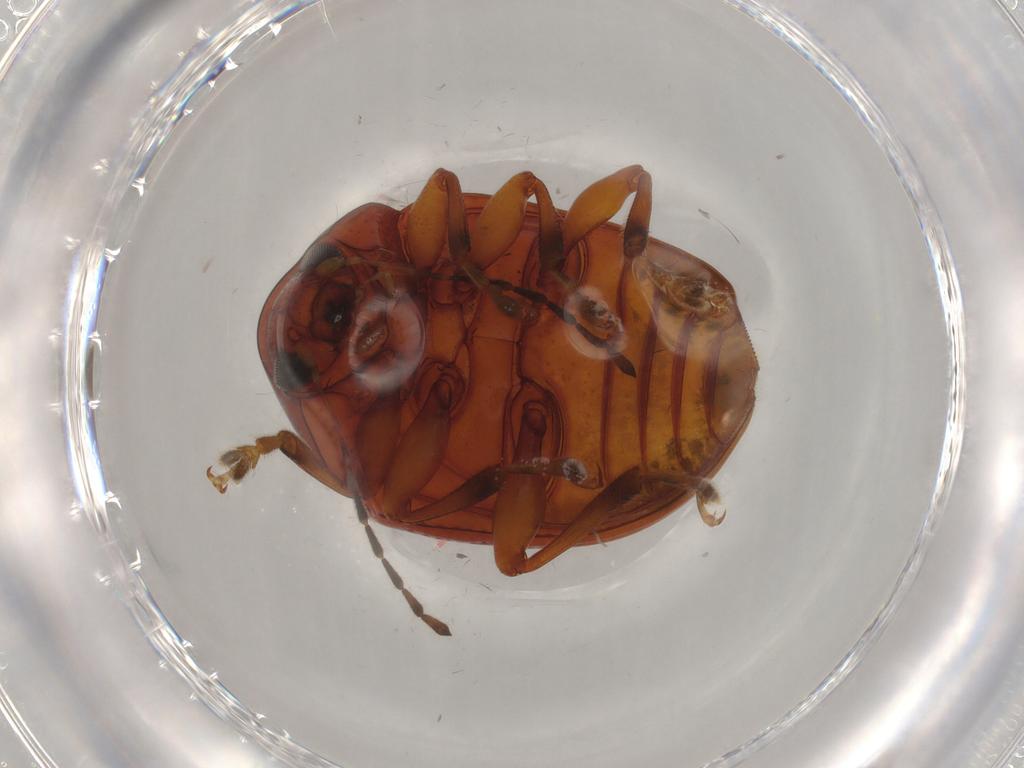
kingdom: Animalia
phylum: Arthropoda
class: Insecta
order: Coleoptera
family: Chrysomelidae
